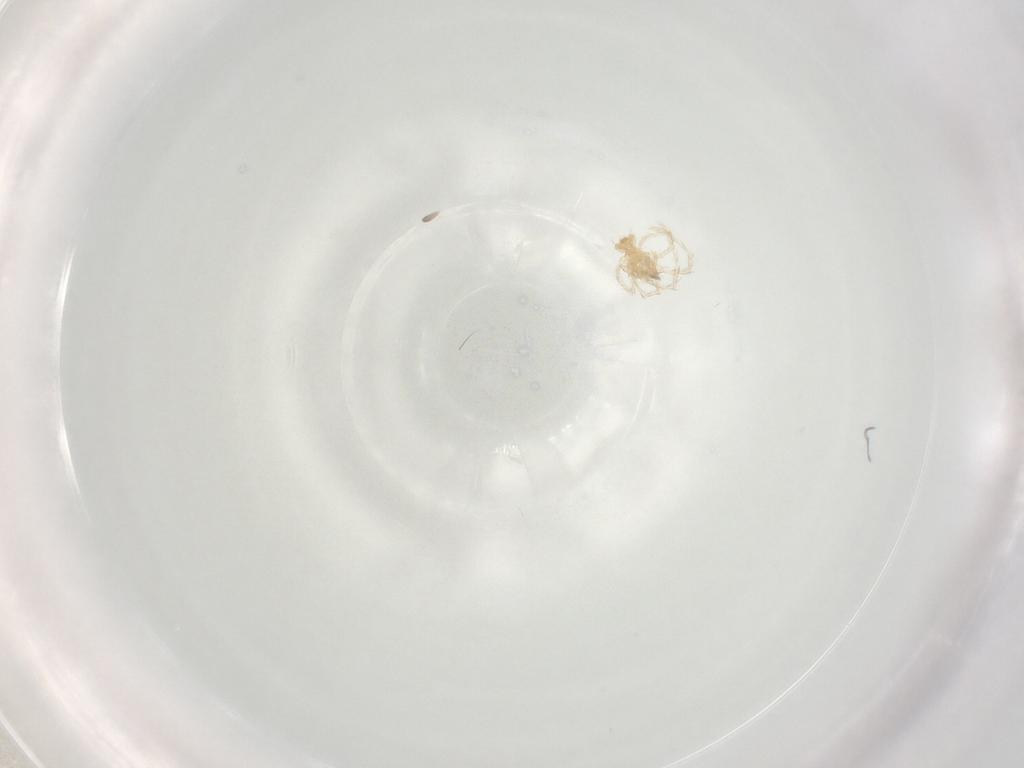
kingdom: Animalia
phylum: Arthropoda
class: Arachnida
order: Trombidiformes
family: Erythraeidae
